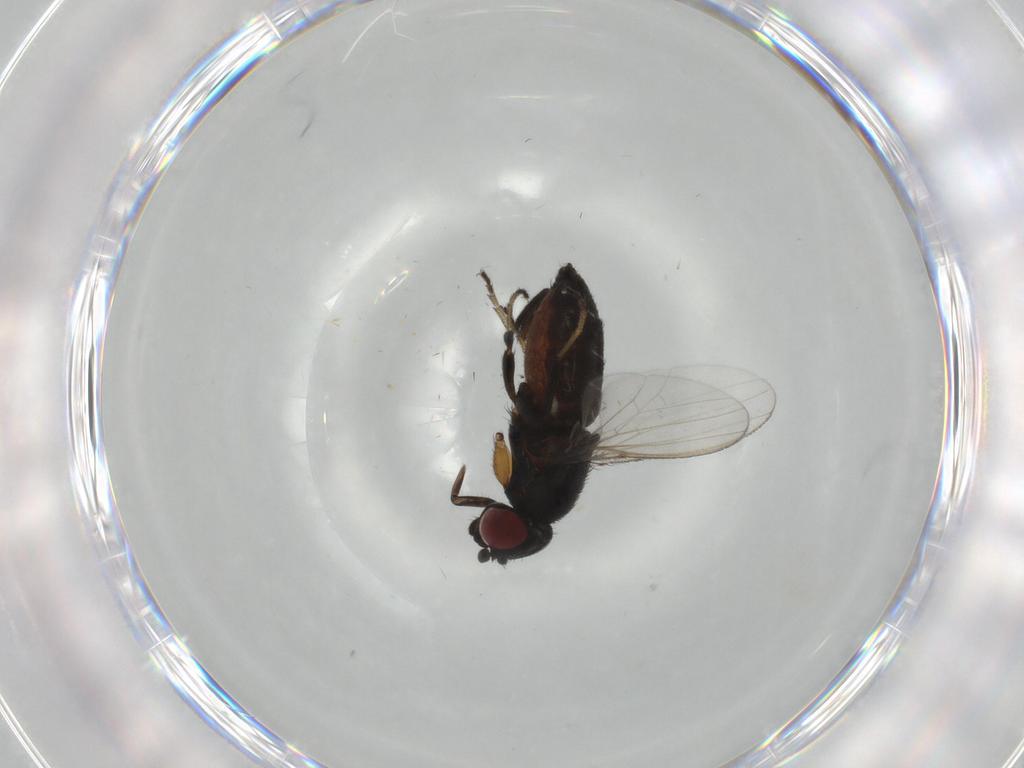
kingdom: Animalia
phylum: Arthropoda
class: Insecta
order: Diptera
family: Milichiidae
